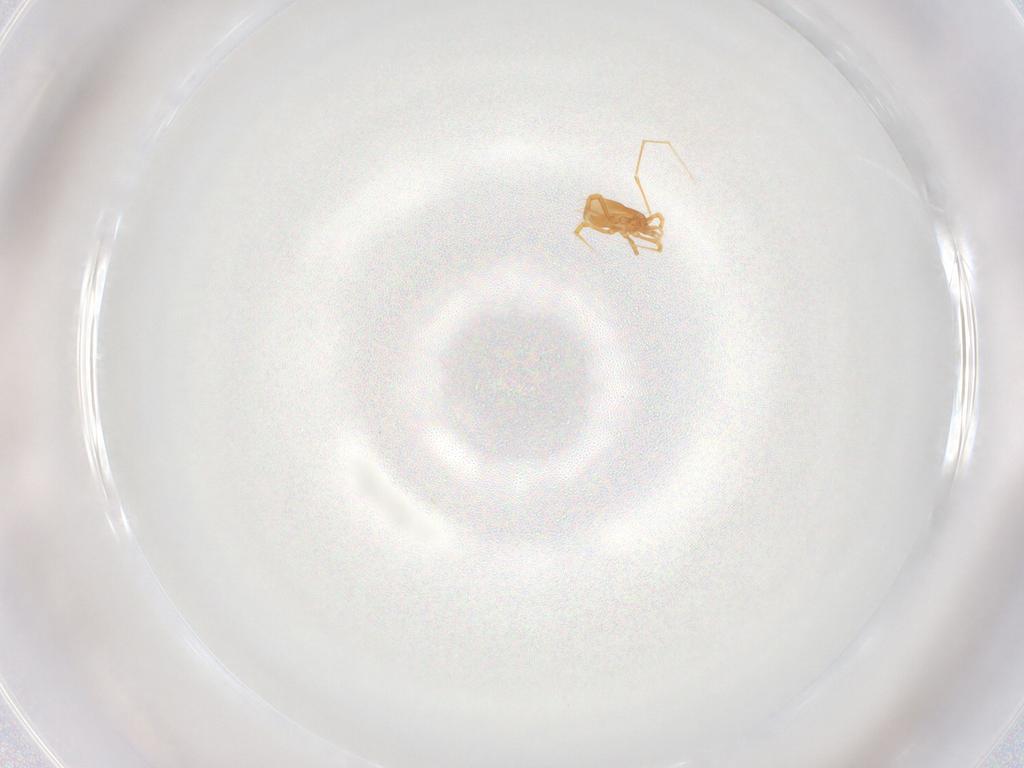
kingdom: Animalia
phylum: Arthropoda
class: Arachnida
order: Mesostigmata
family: Podocinidae
